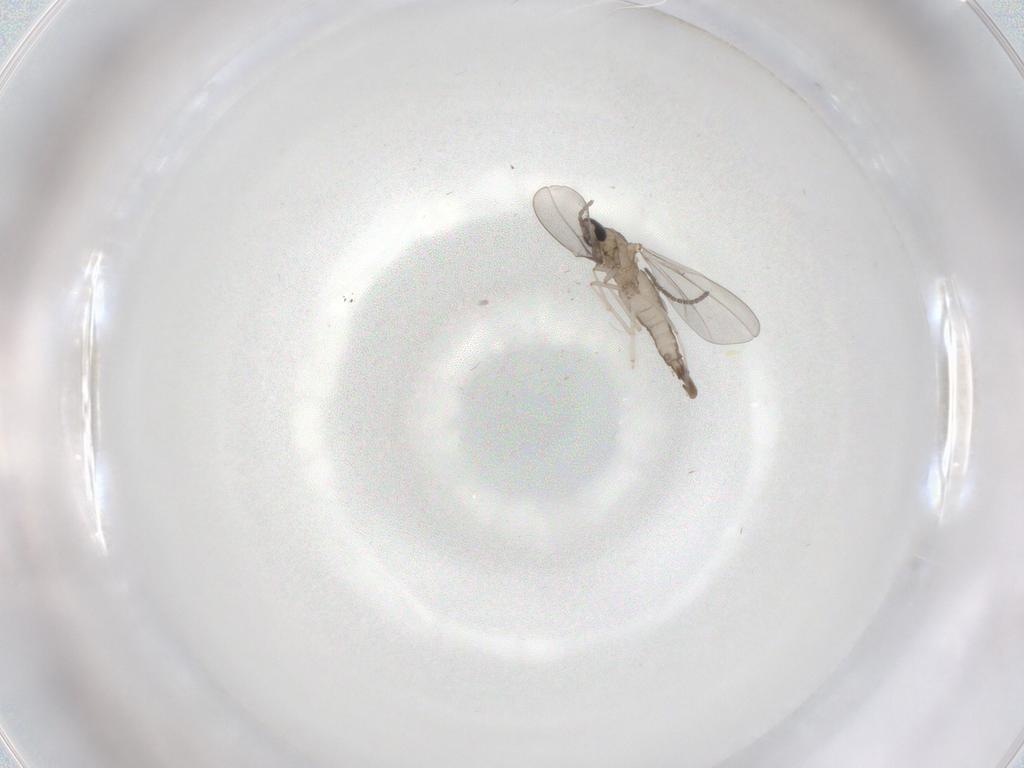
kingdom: Animalia
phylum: Arthropoda
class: Insecta
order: Diptera
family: Sciaridae
